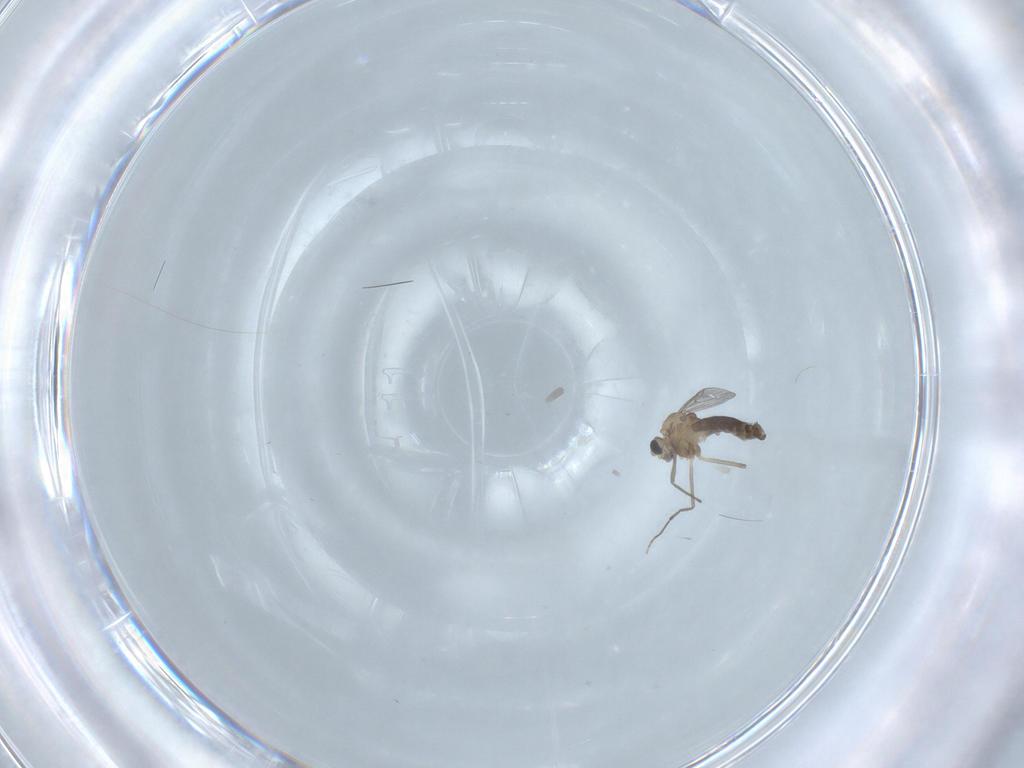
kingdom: Animalia
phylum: Arthropoda
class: Insecta
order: Diptera
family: Chironomidae
